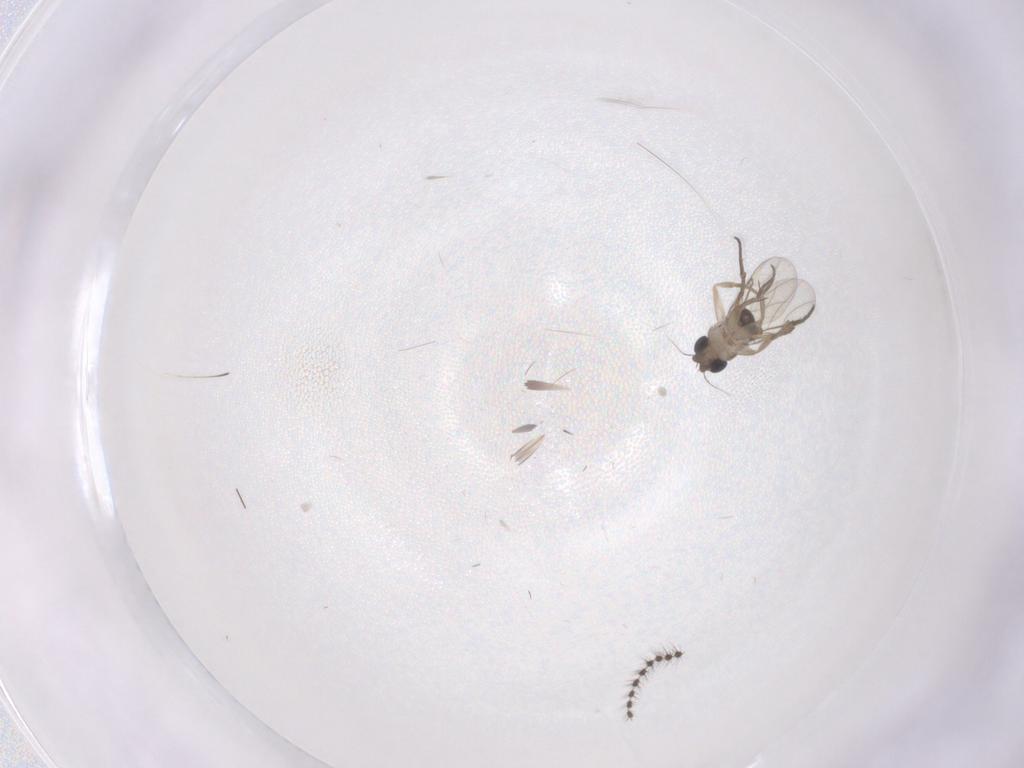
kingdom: Animalia
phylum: Arthropoda
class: Insecta
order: Diptera
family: Phoridae
